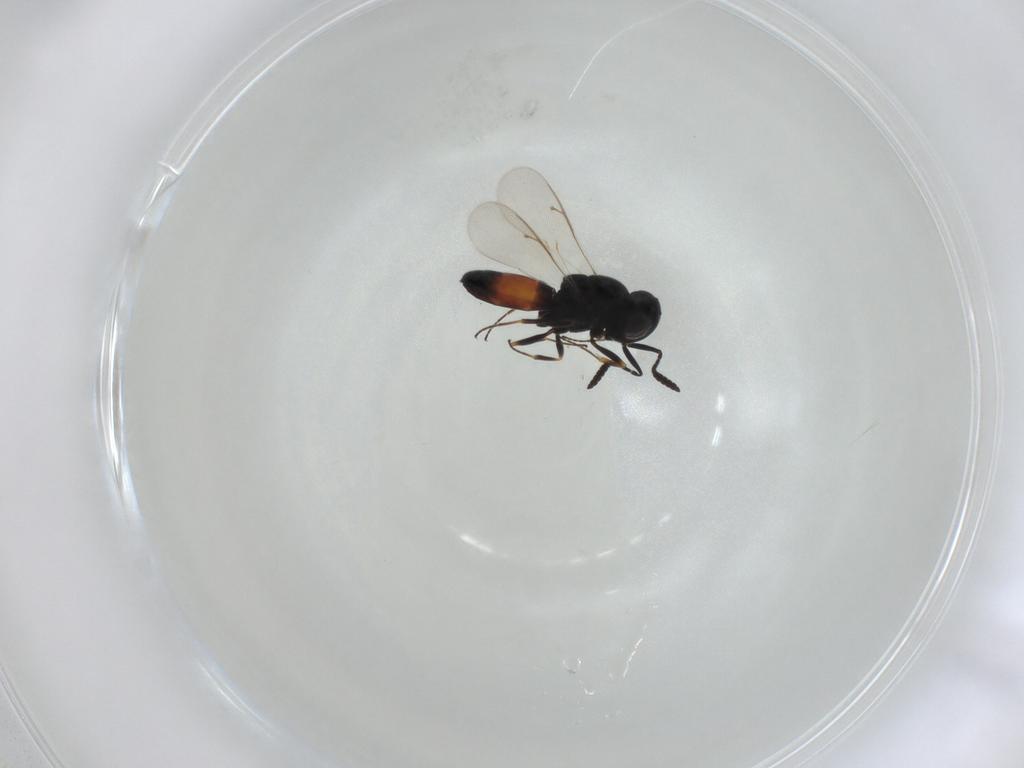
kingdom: Animalia
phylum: Arthropoda
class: Insecta
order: Hymenoptera
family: Scelionidae
